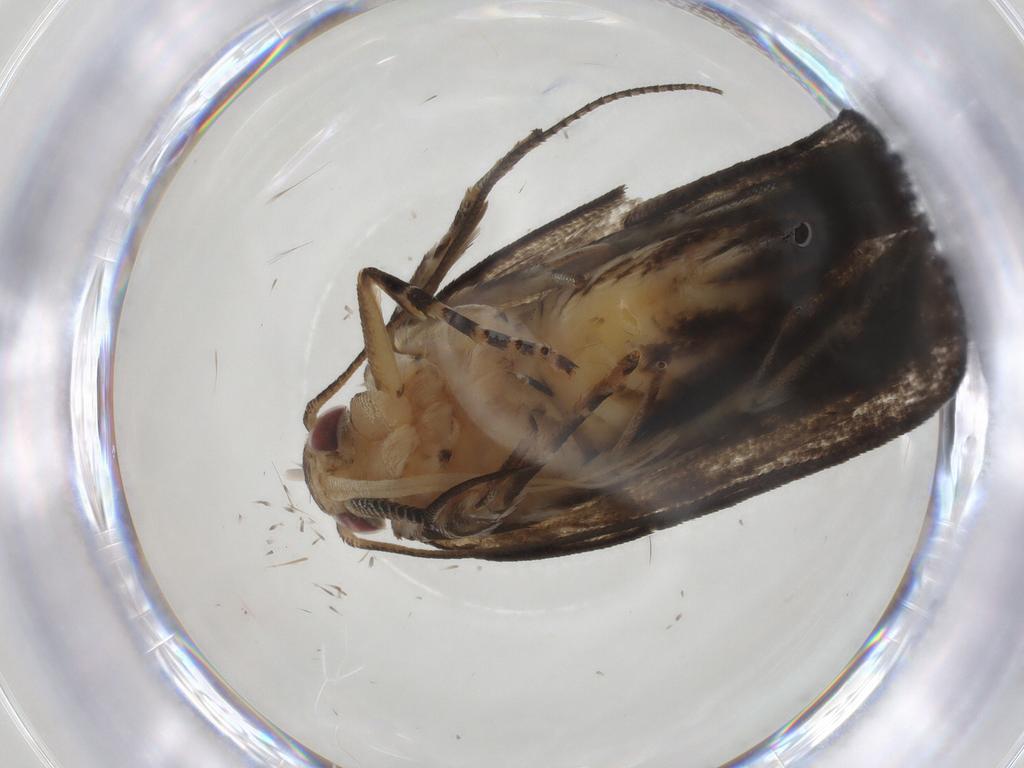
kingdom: Animalia
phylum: Arthropoda
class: Insecta
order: Lepidoptera
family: Gelechiidae
